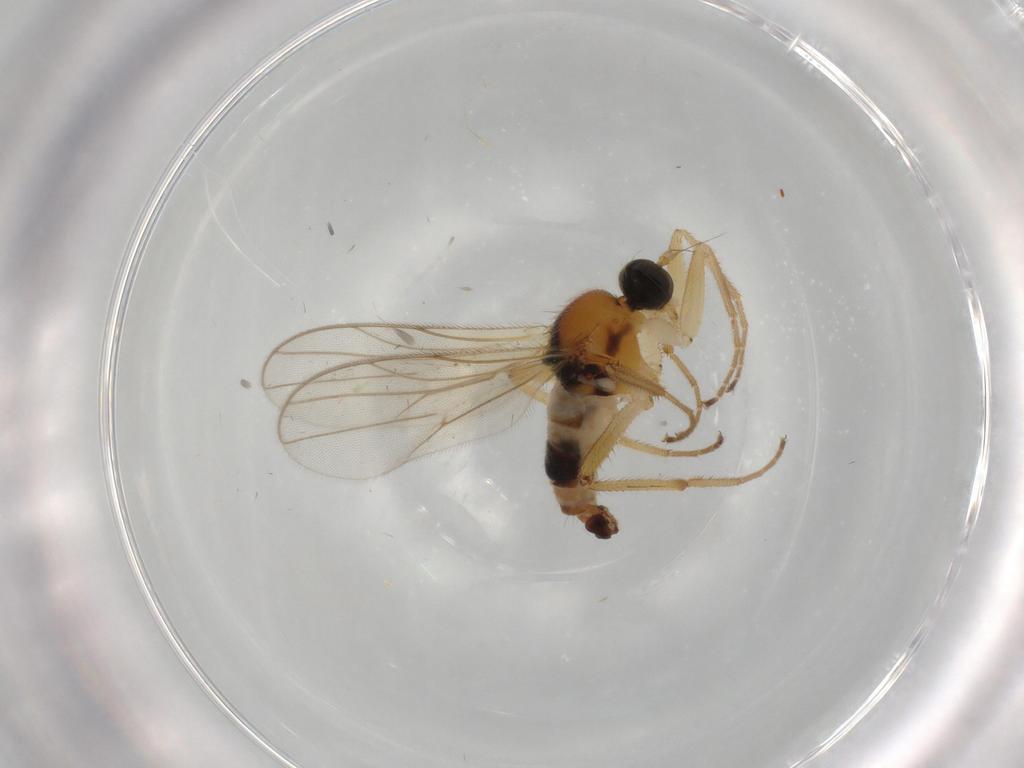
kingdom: Animalia
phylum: Arthropoda
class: Insecta
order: Diptera
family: Hybotidae
